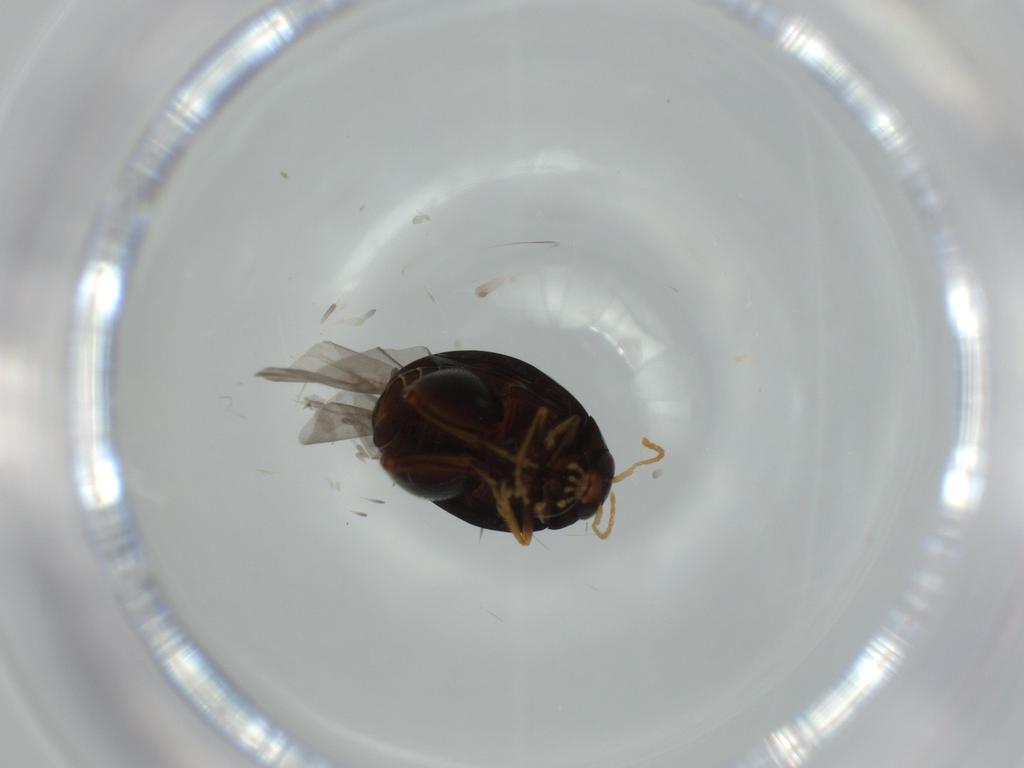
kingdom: Animalia
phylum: Arthropoda
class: Insecta
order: Coleoptera
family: Chrysomelidae
